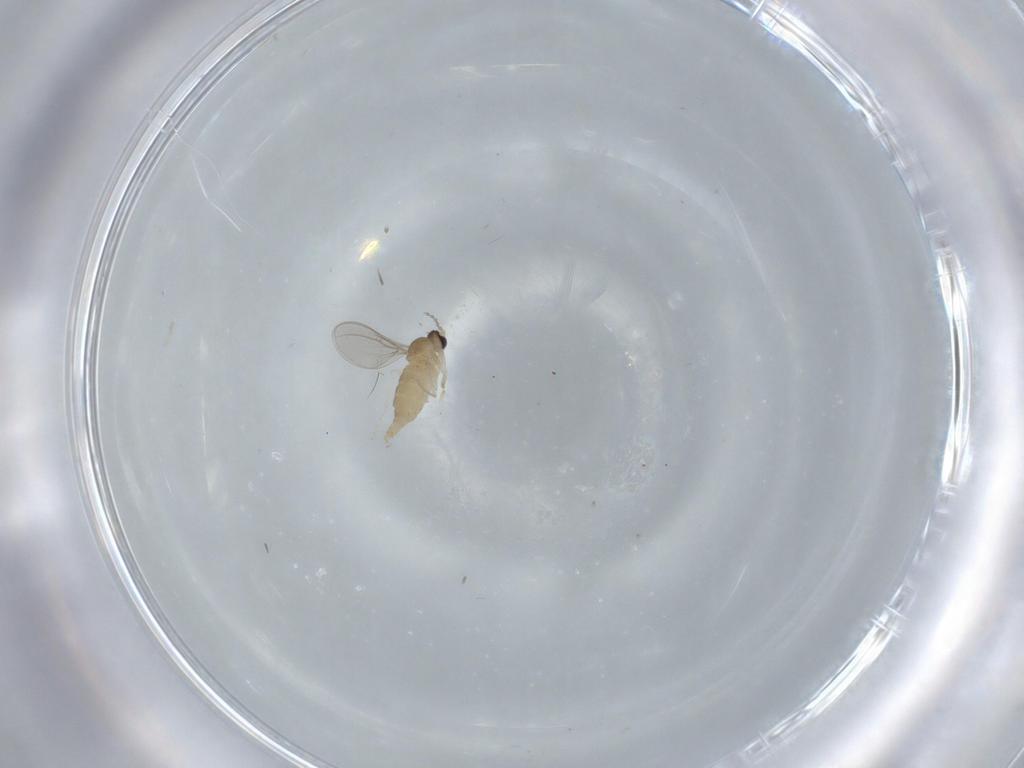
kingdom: Animalia
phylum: Arthropoda
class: Insecta
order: Diptera
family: Cecidomyiidae
